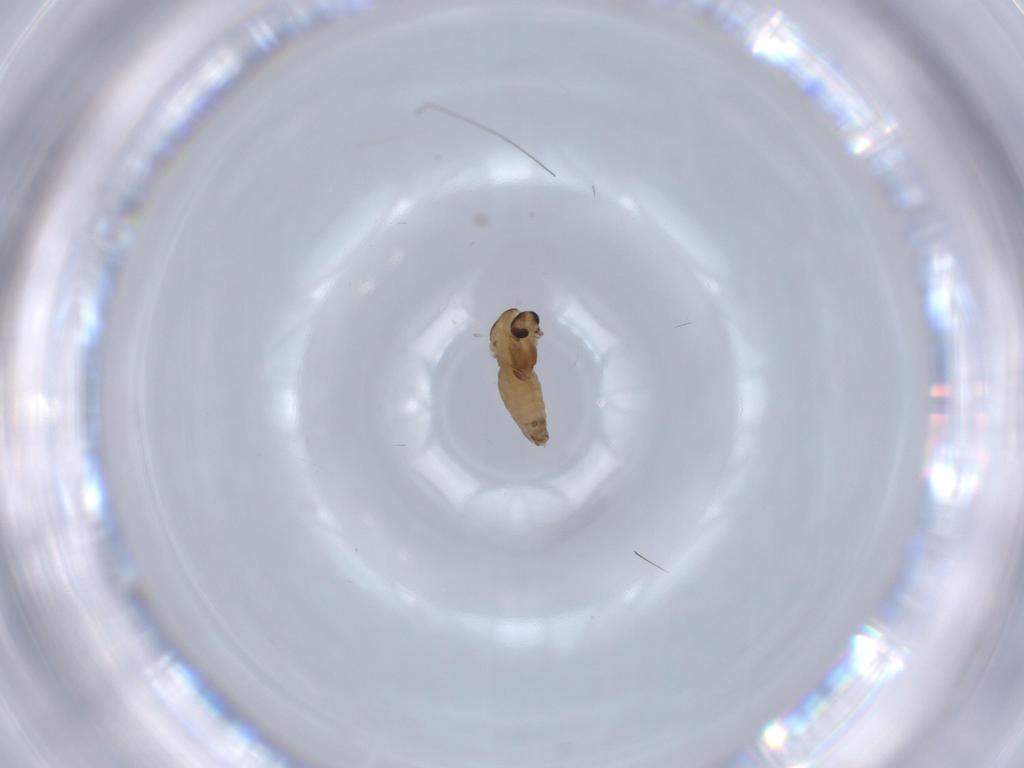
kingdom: Animalia
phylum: Arthropoda
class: Insecta
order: Diptera
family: Chironomidae
